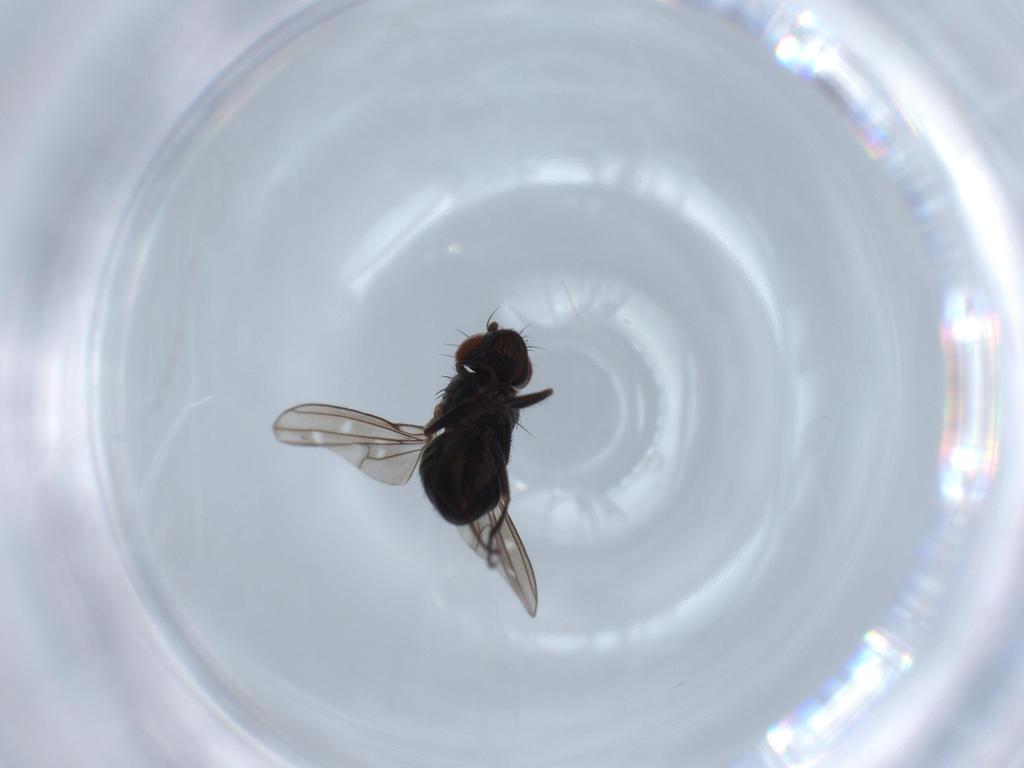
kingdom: Animalia
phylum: Arthropoda
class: Insecta
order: Diptera
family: Ephydridae
